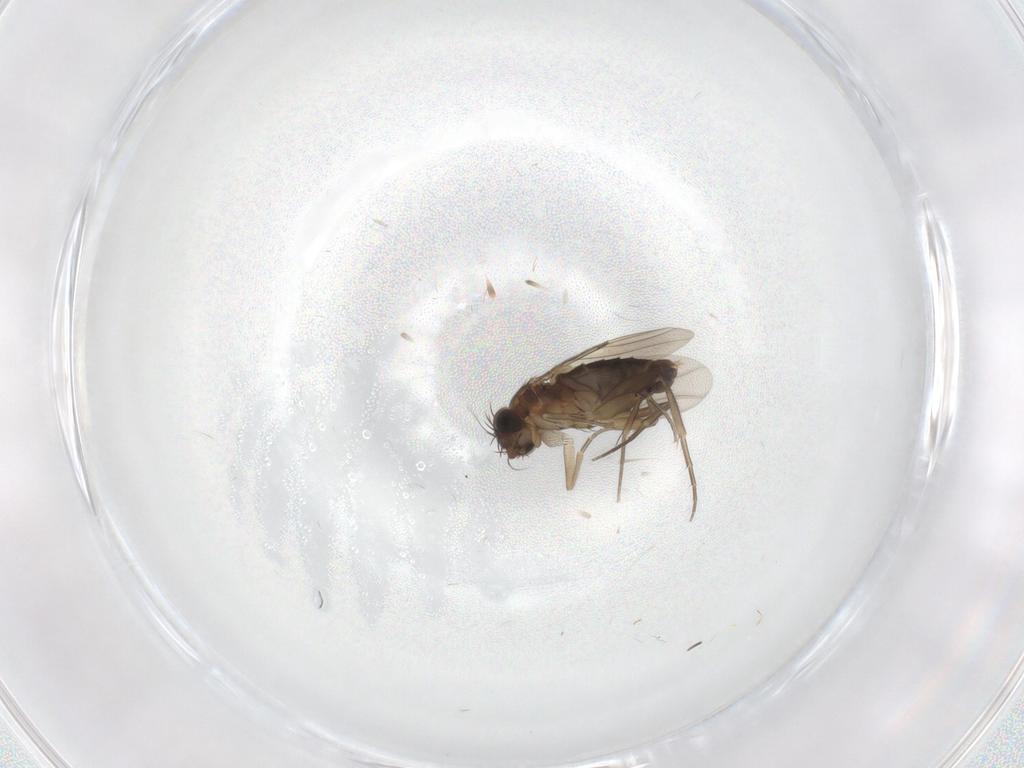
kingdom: Animalia
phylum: Arthropoda
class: Insecta
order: Diptera
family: Phoridae
